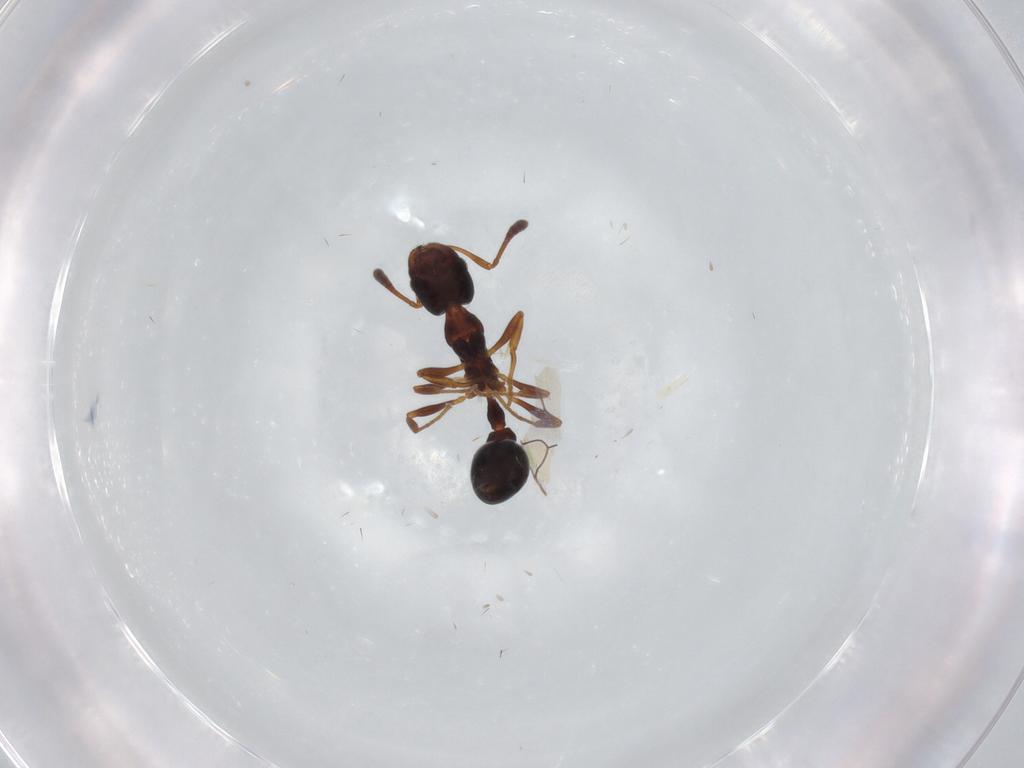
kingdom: Animalia
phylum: Arthropoda
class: Insecta
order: Hymenoptera
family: Formicidae
